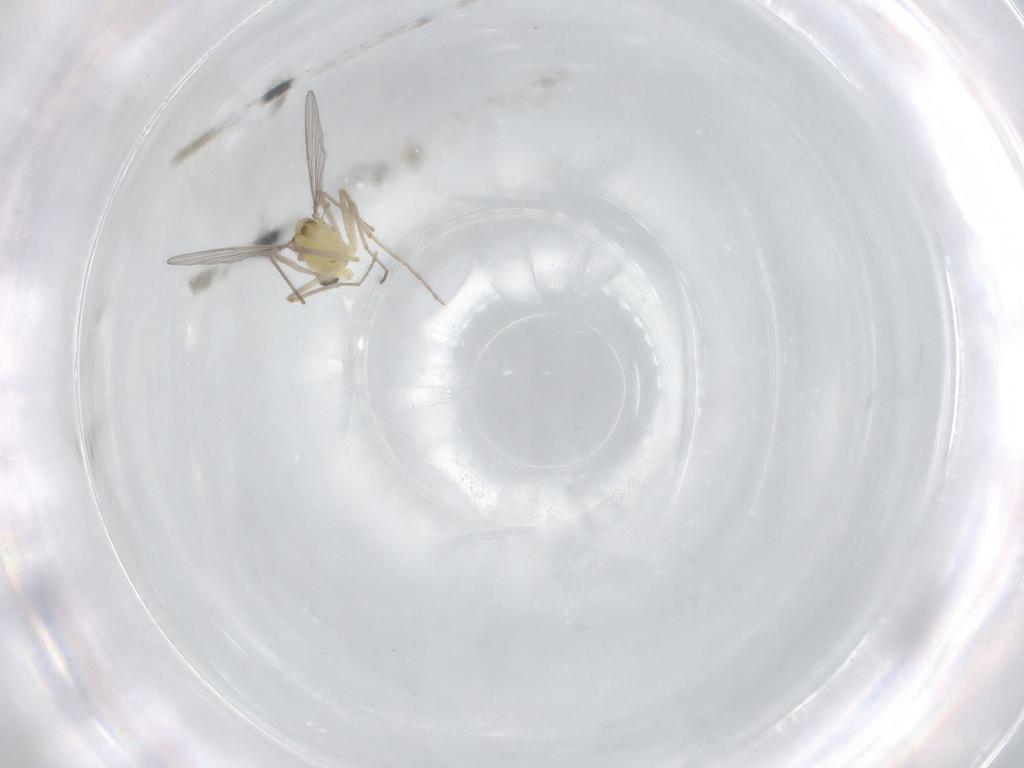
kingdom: Animalia
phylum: Arthropoda
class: Insecta
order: Diptera
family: Chironomidae
